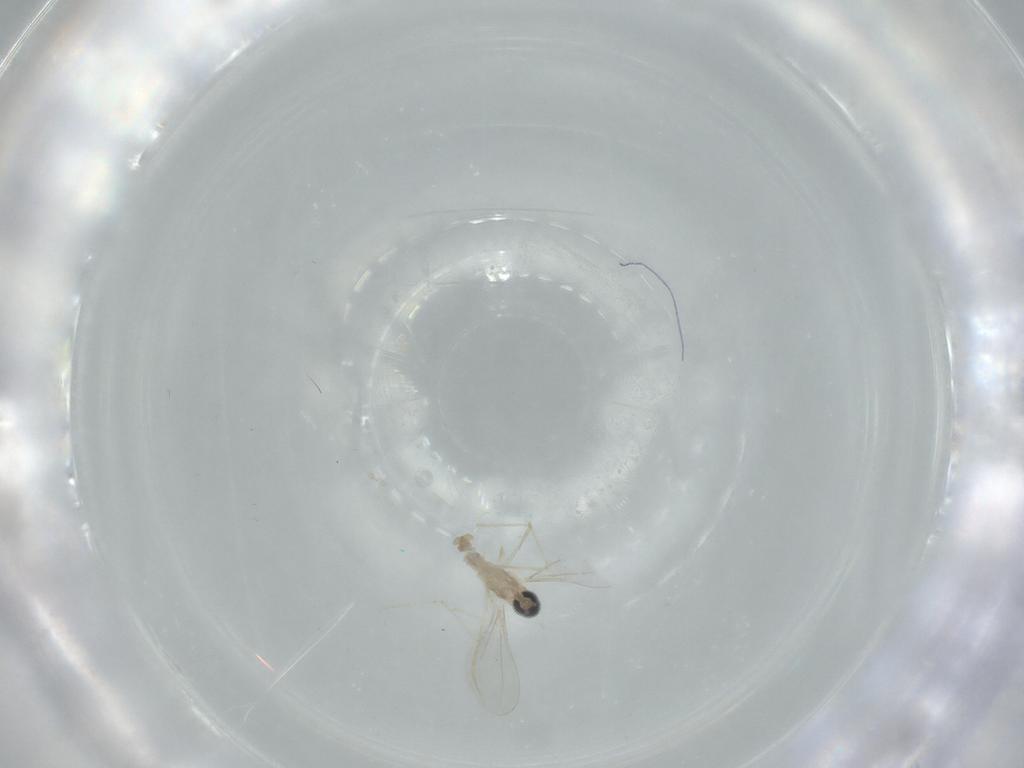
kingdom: Animalia
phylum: Arthropoda
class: Insecta
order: Diptera
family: Cecidomyiidae
